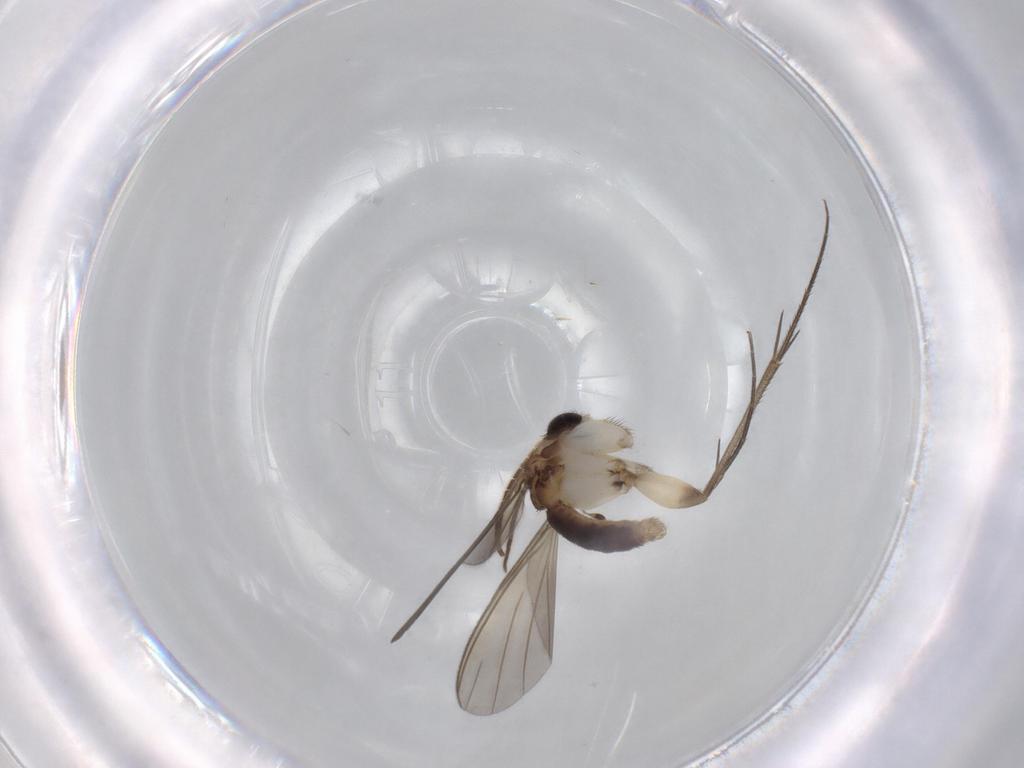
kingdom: Animalia
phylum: Arthropoda
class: Insecta
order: Diptera
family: Mycetophilidae
